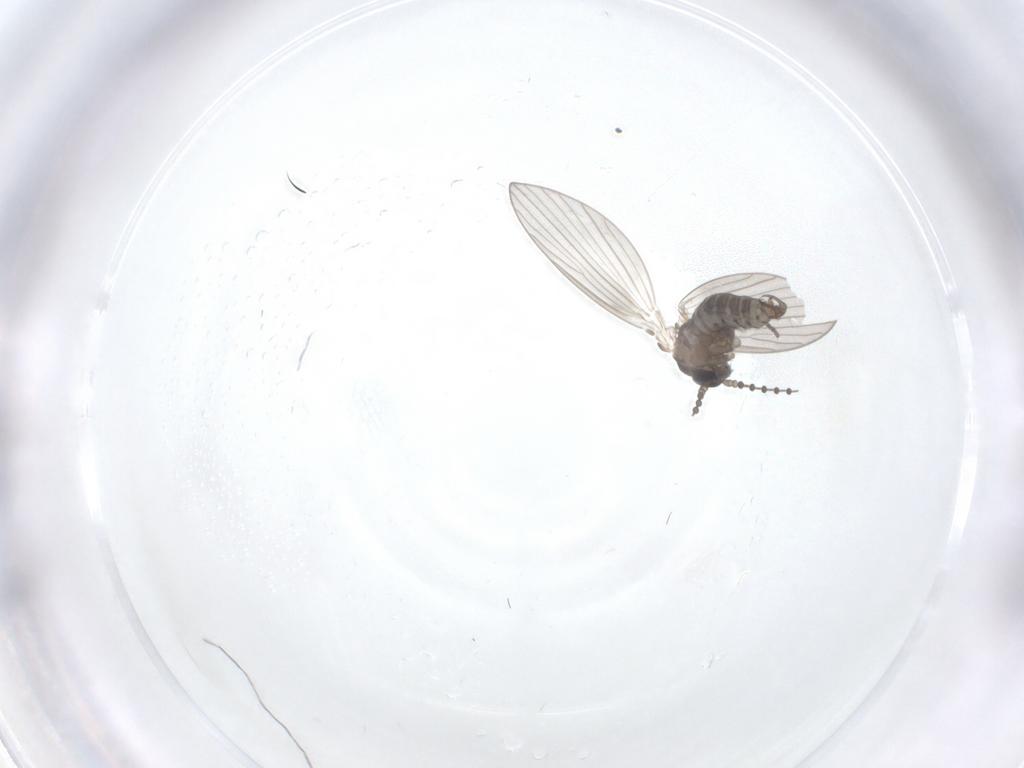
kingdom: Animalia
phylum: Arthropoda
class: Insecta
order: Diptera
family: Psychodidae
